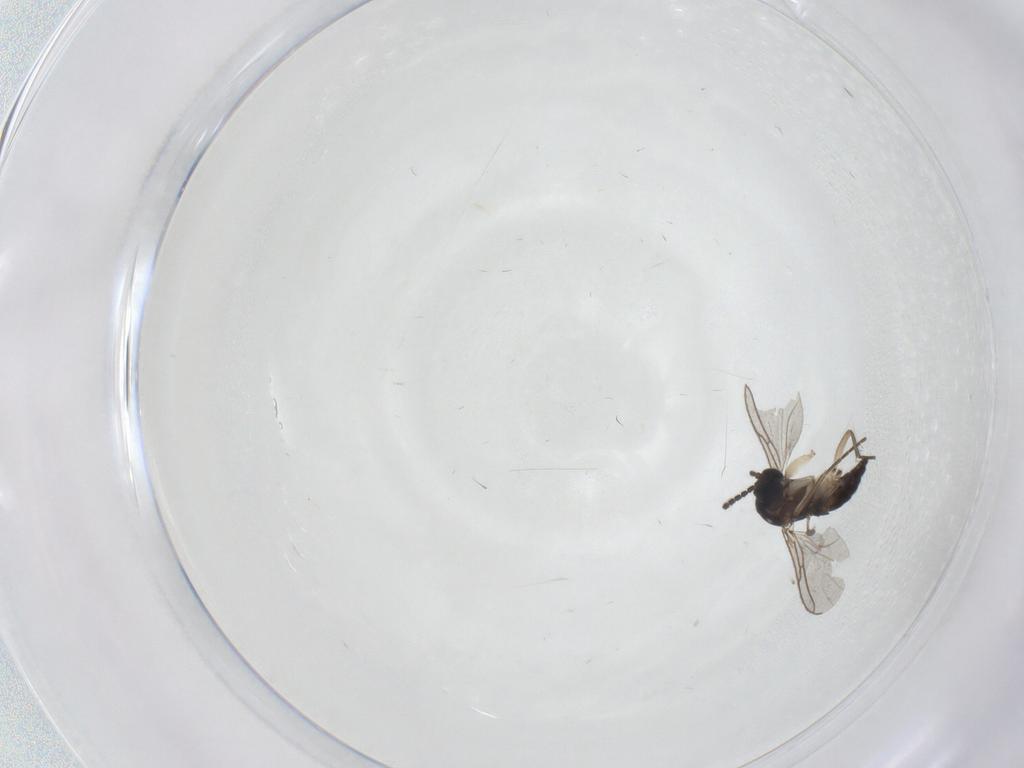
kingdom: Animalia
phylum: Arthropoda
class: Insecta
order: Diptera
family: Sciaridae
